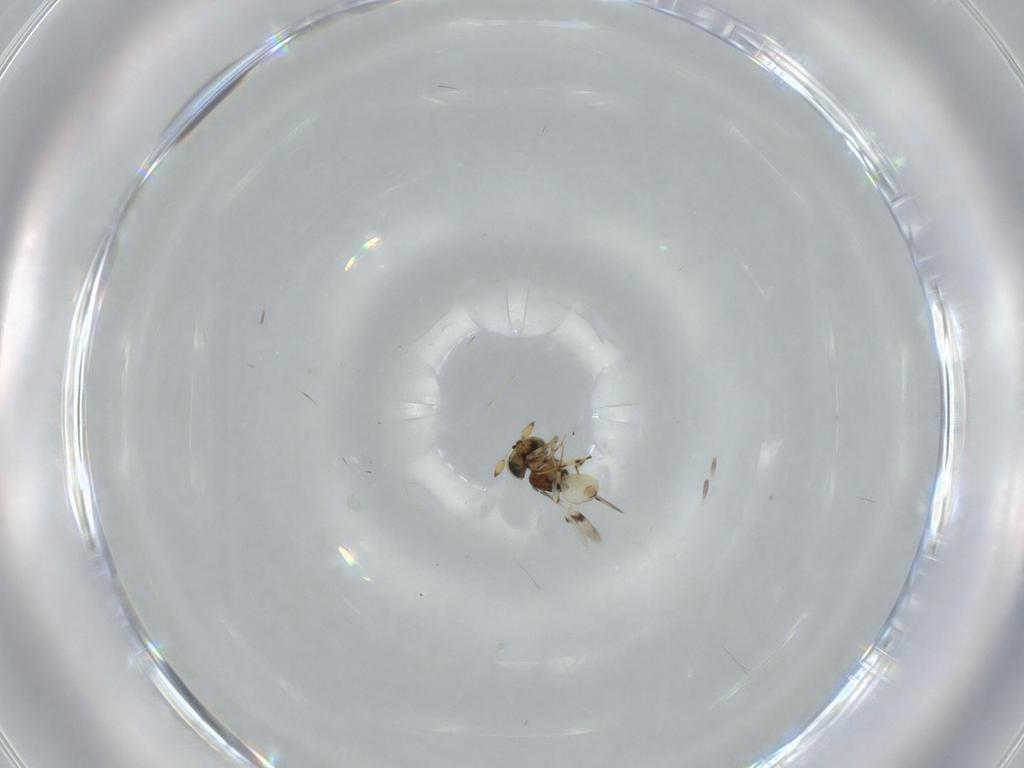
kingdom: Animalia
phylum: Arthropoda
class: Insecta
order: Hymenoptera
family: Scelionidae
